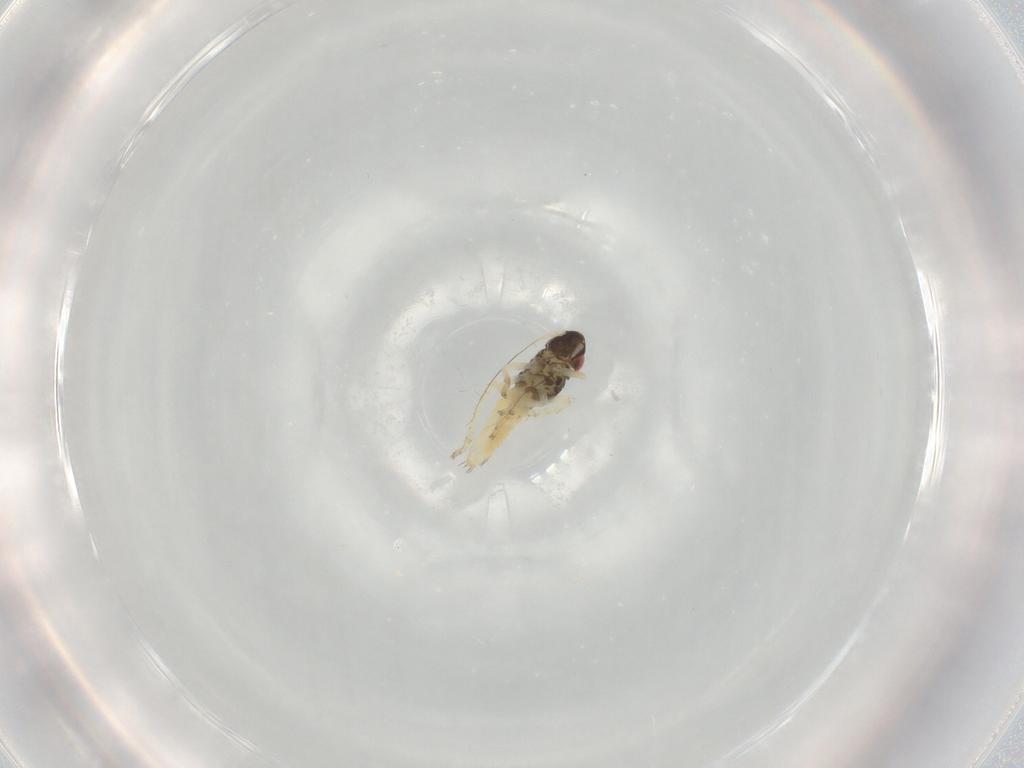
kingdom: Animalia
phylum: Arthropoda
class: Insecta
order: Hemiptera
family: Cicadellidae
